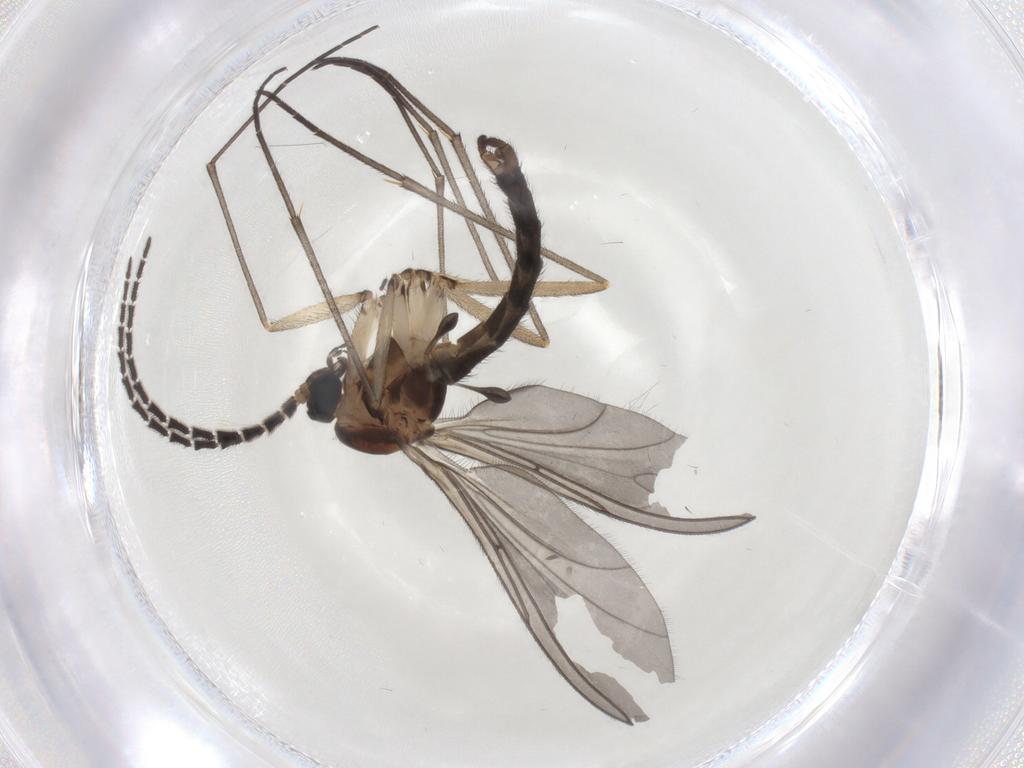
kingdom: Animalia
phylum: Arthropoda
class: Insecta
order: Diptera
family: Sciaridae
